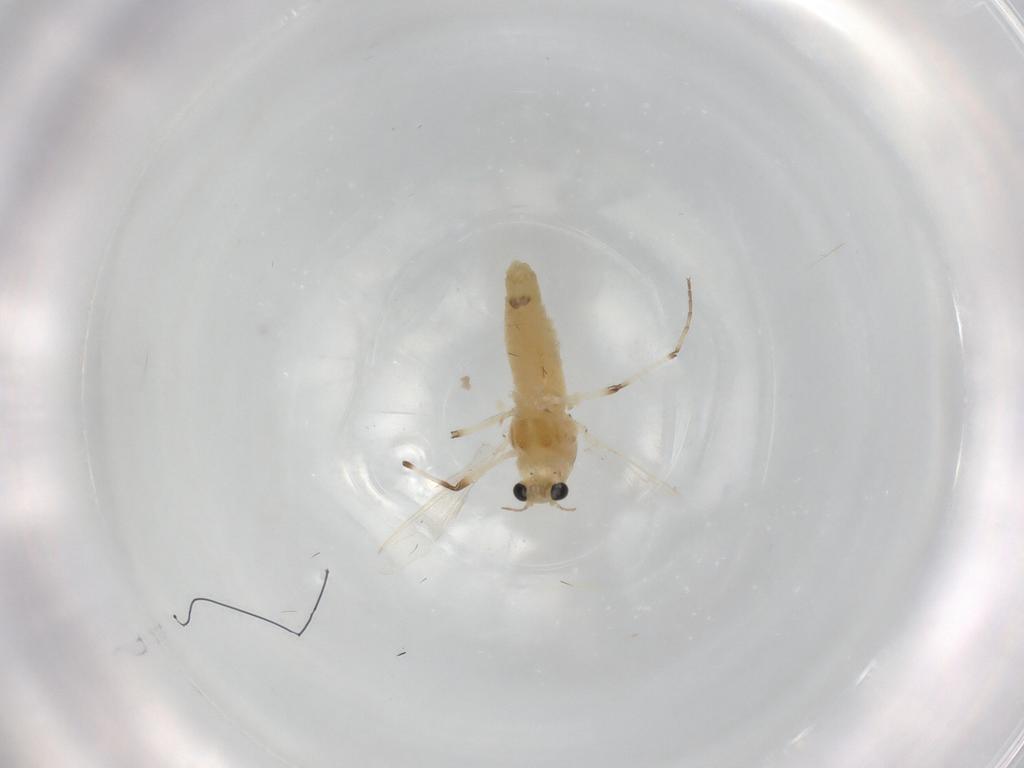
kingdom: Animalia
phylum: Arthropoda
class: Insecta
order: Diptera
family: Chironomidae
